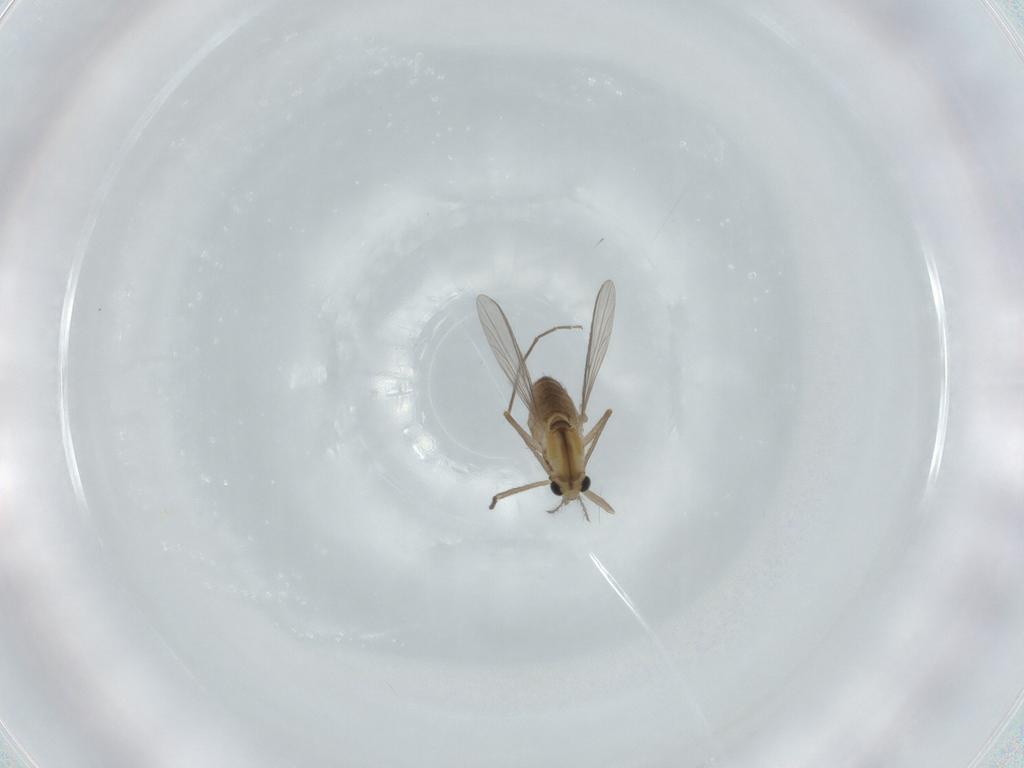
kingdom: Animalia
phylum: Arthropoda
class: Insecta
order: Diptera
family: Chironomidae
